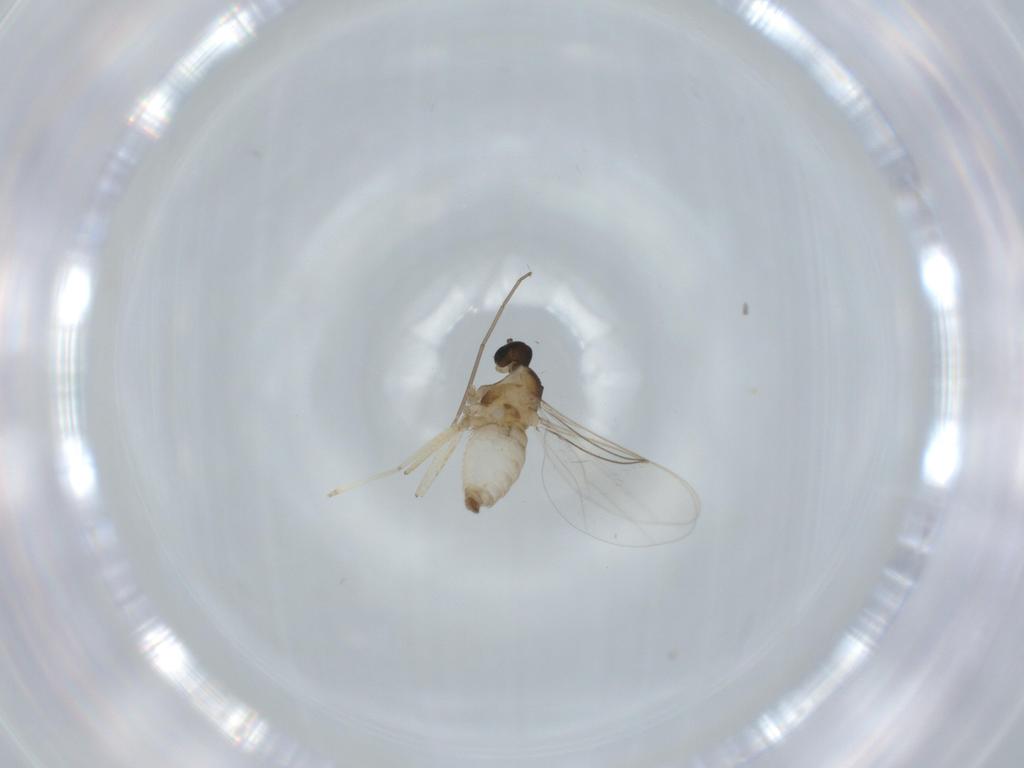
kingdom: Animalia
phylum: Arthropoda
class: Insecta
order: Diptera
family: Cecidomyiidae
